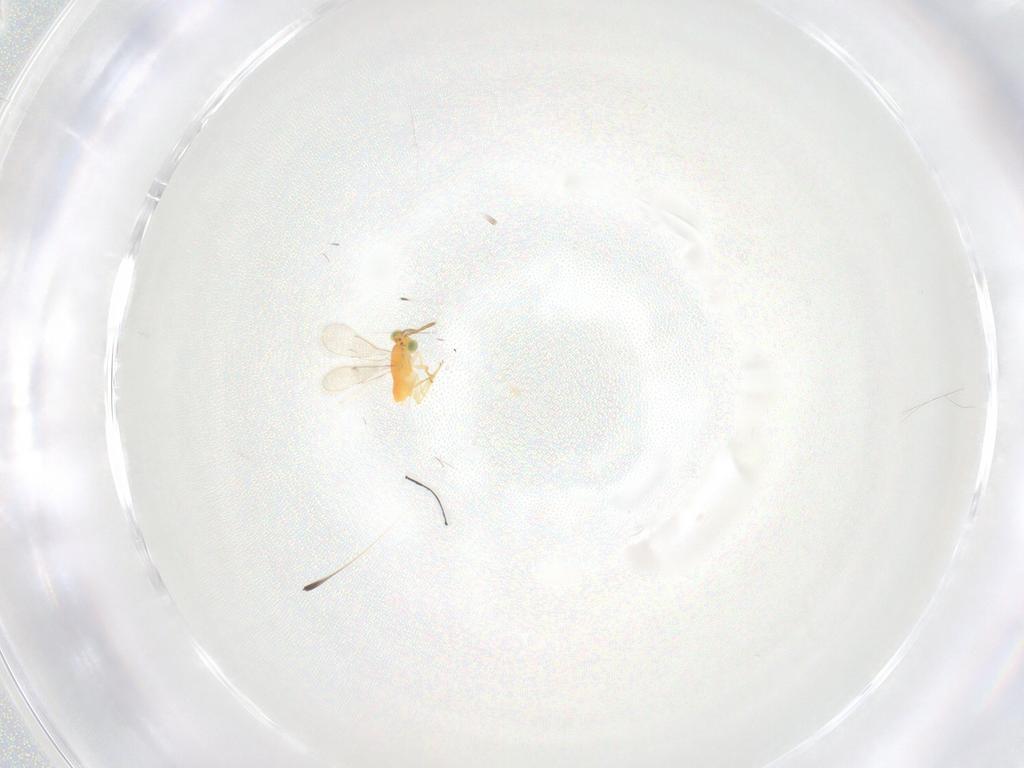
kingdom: Animalia
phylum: Arthropoda
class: Insecta
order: Hymenoptera
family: Aphelinidae
